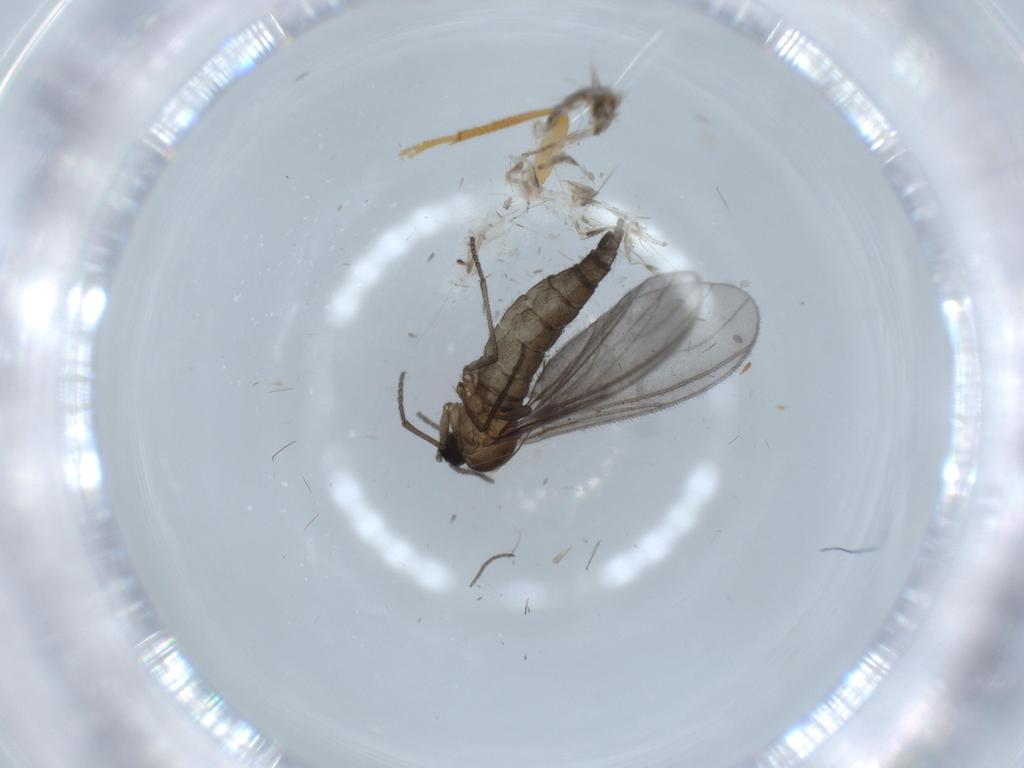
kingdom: Animalia
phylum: Arthropoda
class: Insecta
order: Diptera
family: Sciaridae
